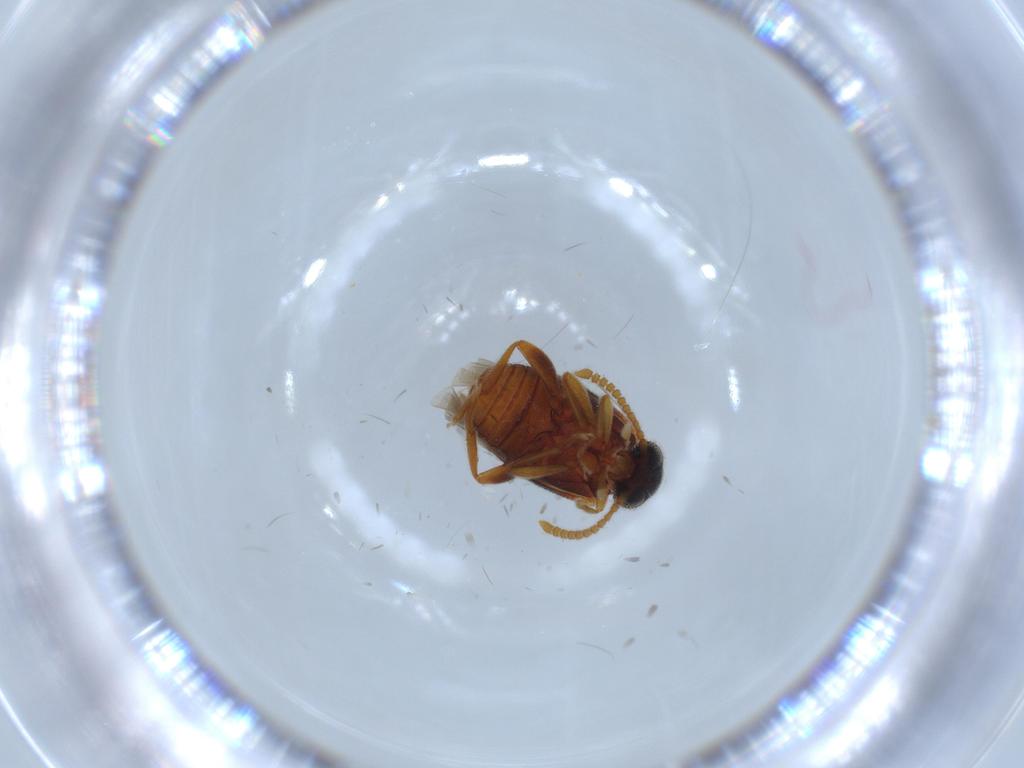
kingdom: Animalia
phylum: Arthropoda
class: Insecta
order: Coleoptera
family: Aderidae
